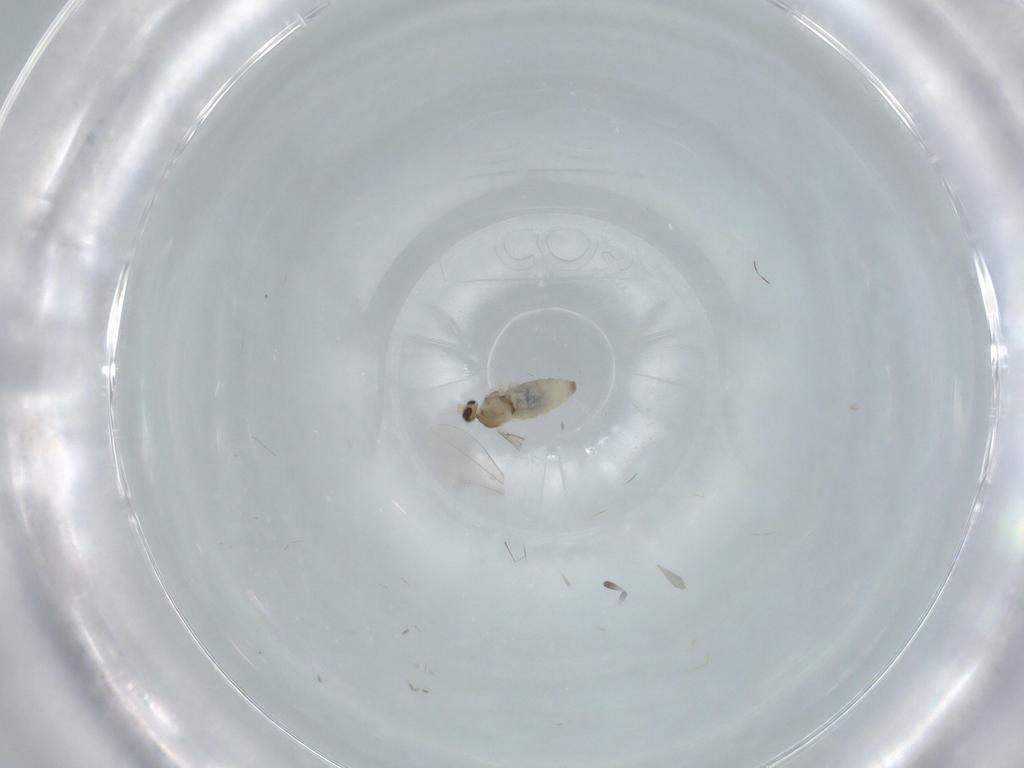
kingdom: Animalia
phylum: Arthropoda
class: Insecta
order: Diptera
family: Cecidomyiidae
